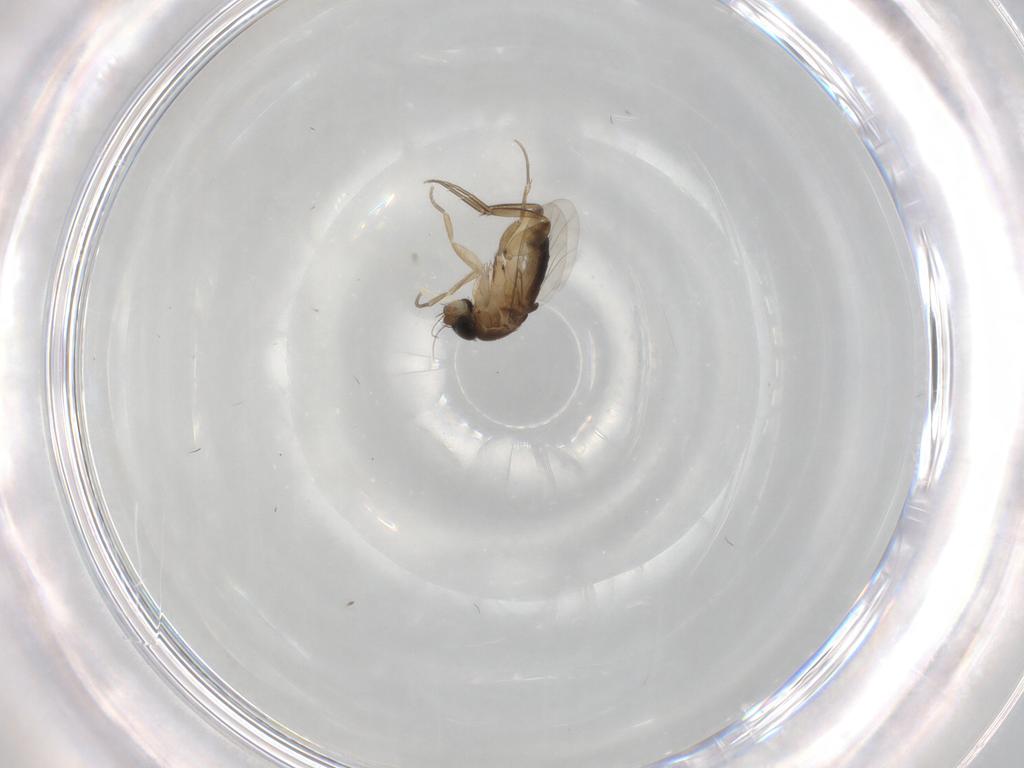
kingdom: Animalia
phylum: Arthropoda
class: Insecta
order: Diptera
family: Phoridae
